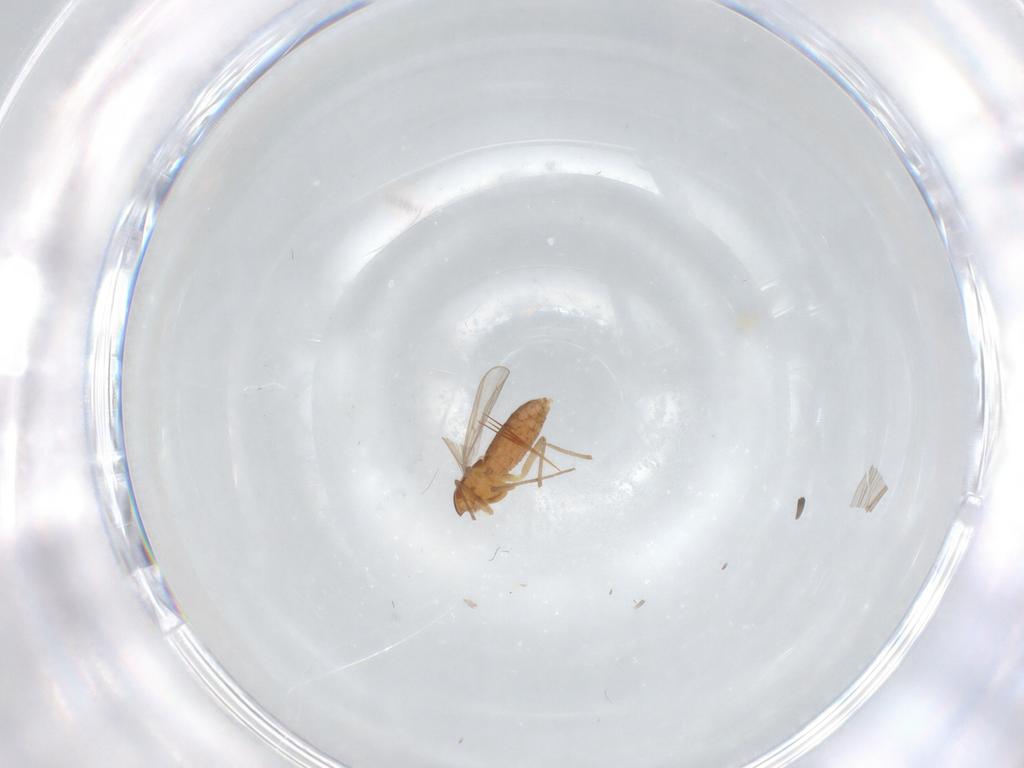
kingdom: Animalia
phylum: Arthropoda
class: Insecta
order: Diptera
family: Chironomidae
